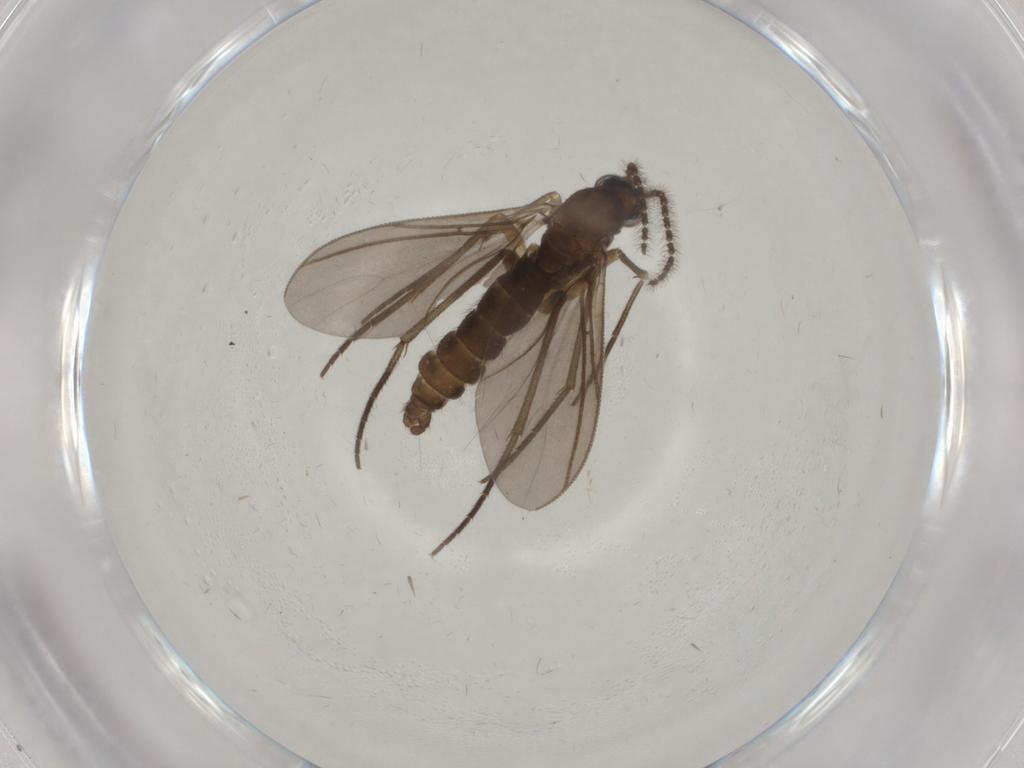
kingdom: Animalia
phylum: Arthropoda
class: Insecta
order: Diptera
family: Sciaridae
